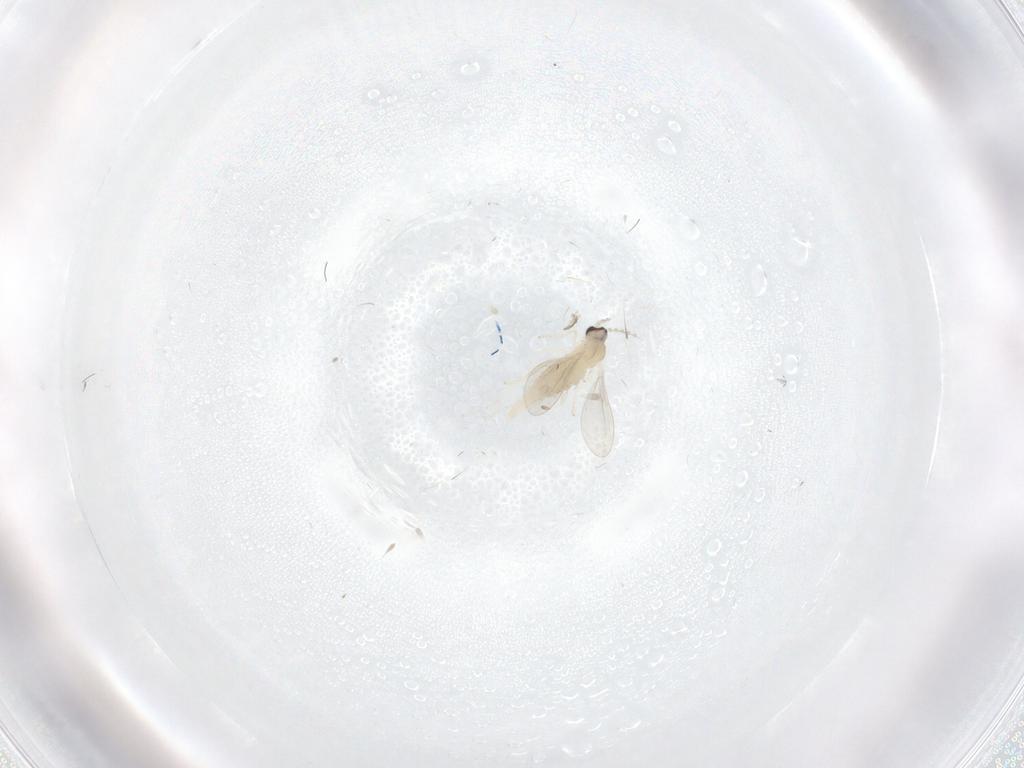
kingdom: Animalia
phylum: Arthropoda
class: Insecta
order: Diptera
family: Cecidomyiidae
